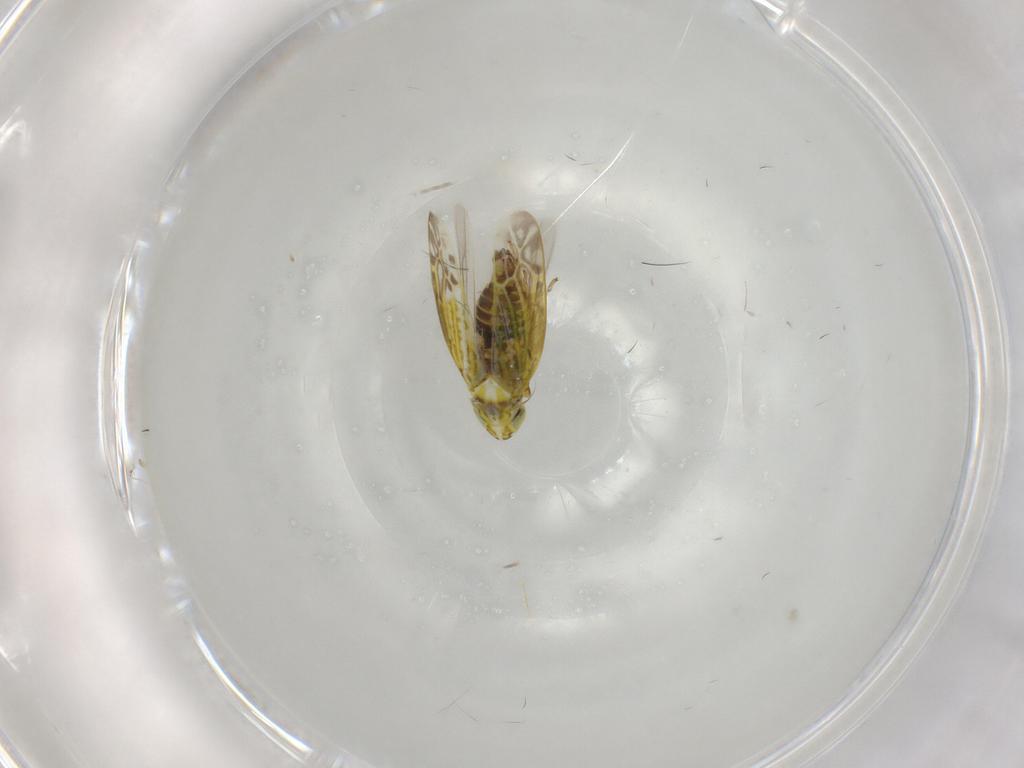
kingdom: Animalia
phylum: Arthropoda
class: Insecta
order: Hemiptera
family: Cicadellidae
